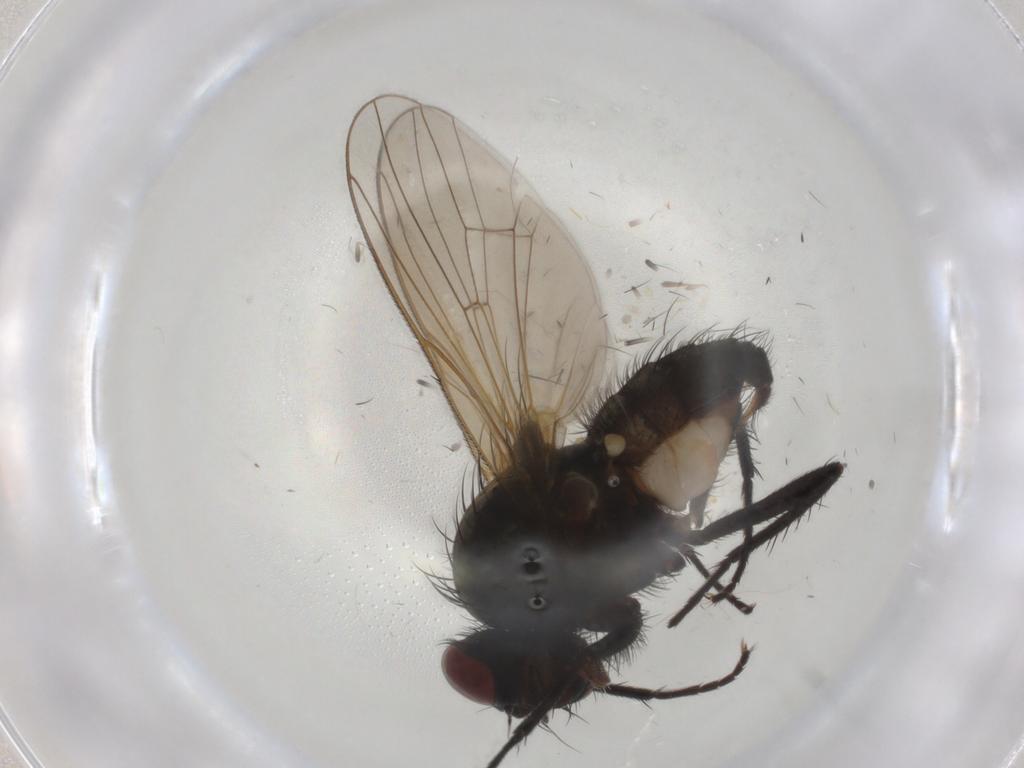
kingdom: Animalia
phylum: Arthropoda
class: Insecta
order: Diptera
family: Anthomyiidae
